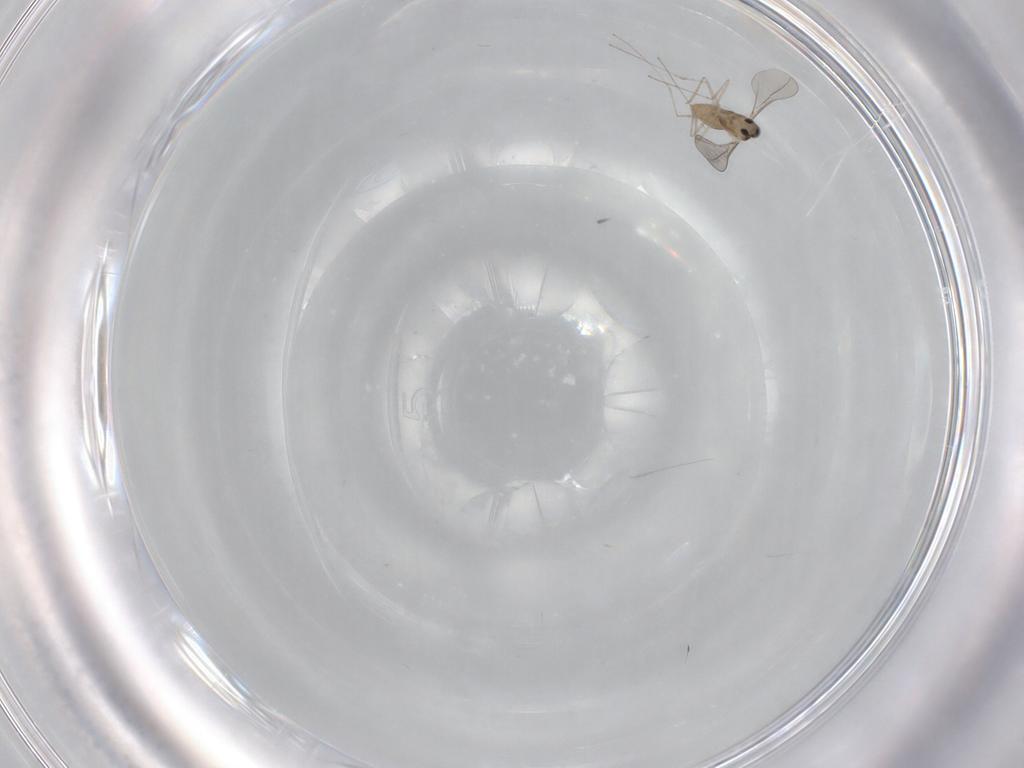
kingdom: Animalia
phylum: Arthropoda
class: Insecta
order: Diptera
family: Cecidomyiidae
